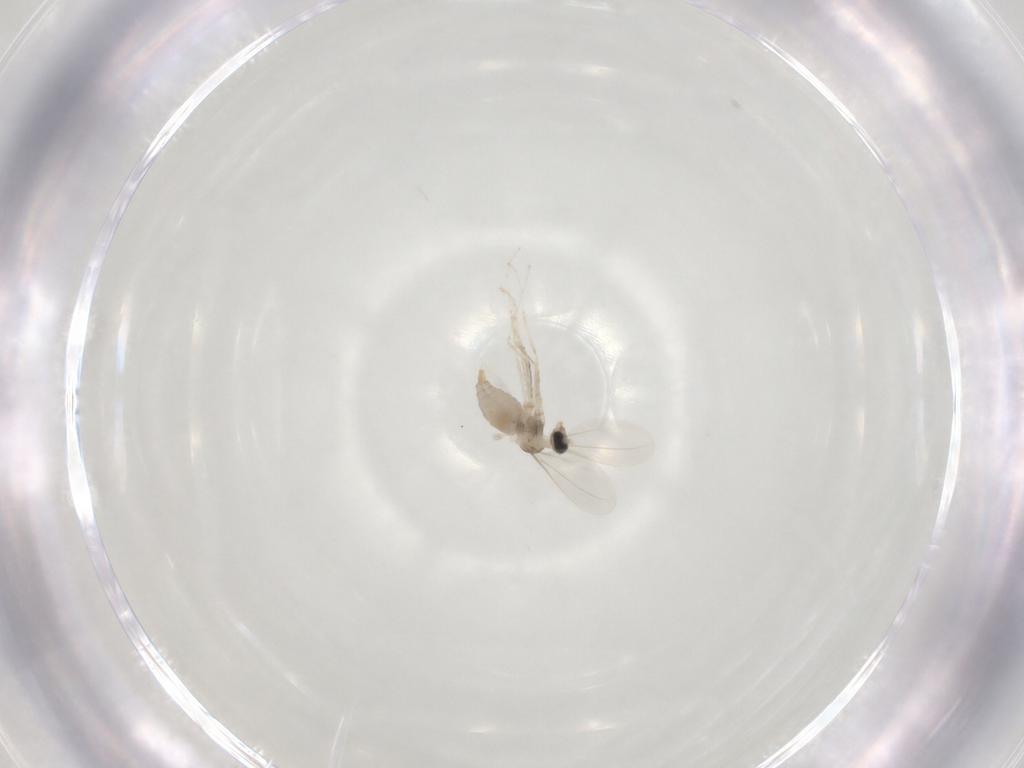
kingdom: Animalia
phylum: Arthropoda
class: Insecta
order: Diptera
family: Cecidomyiidae
